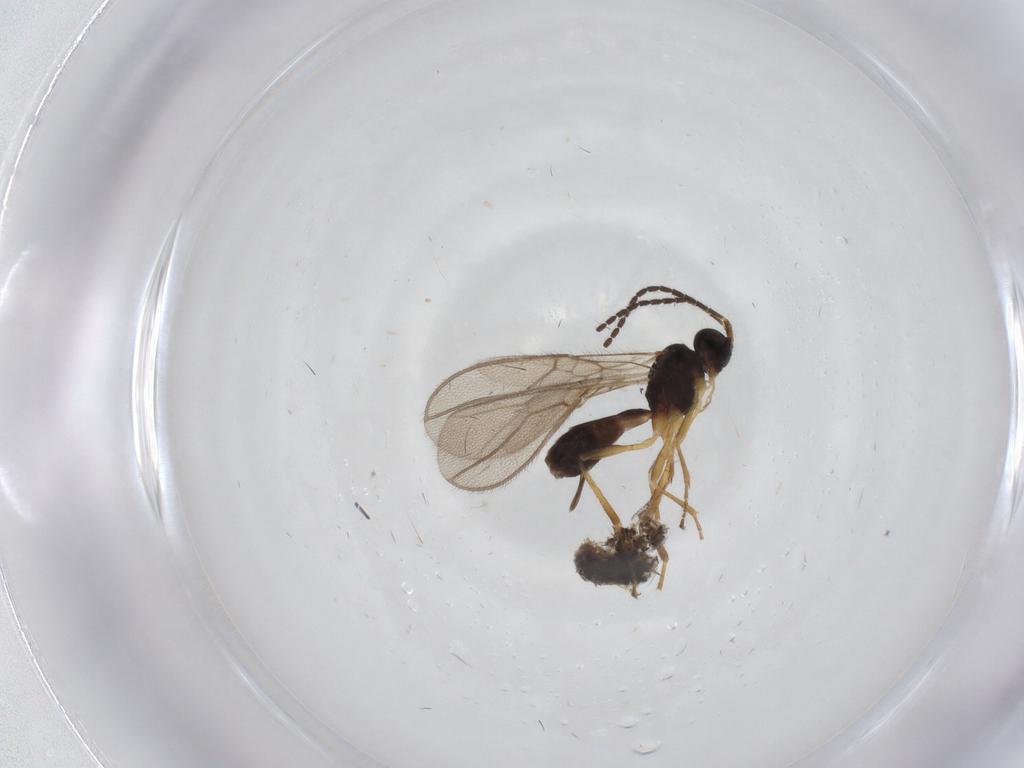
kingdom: Animalia
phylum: Arthropoda
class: Insecta
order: Hymenoptera
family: Braconidae
